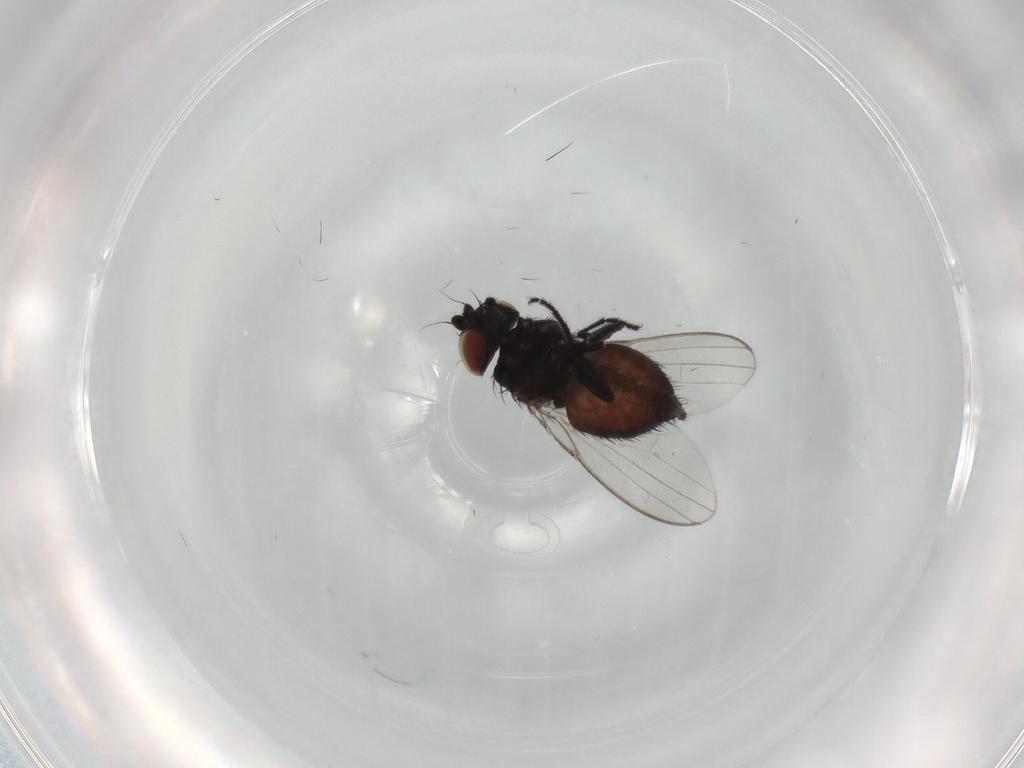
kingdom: Animalia
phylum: Arthropoda
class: Insecta
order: Diptera
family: Milichiidae
